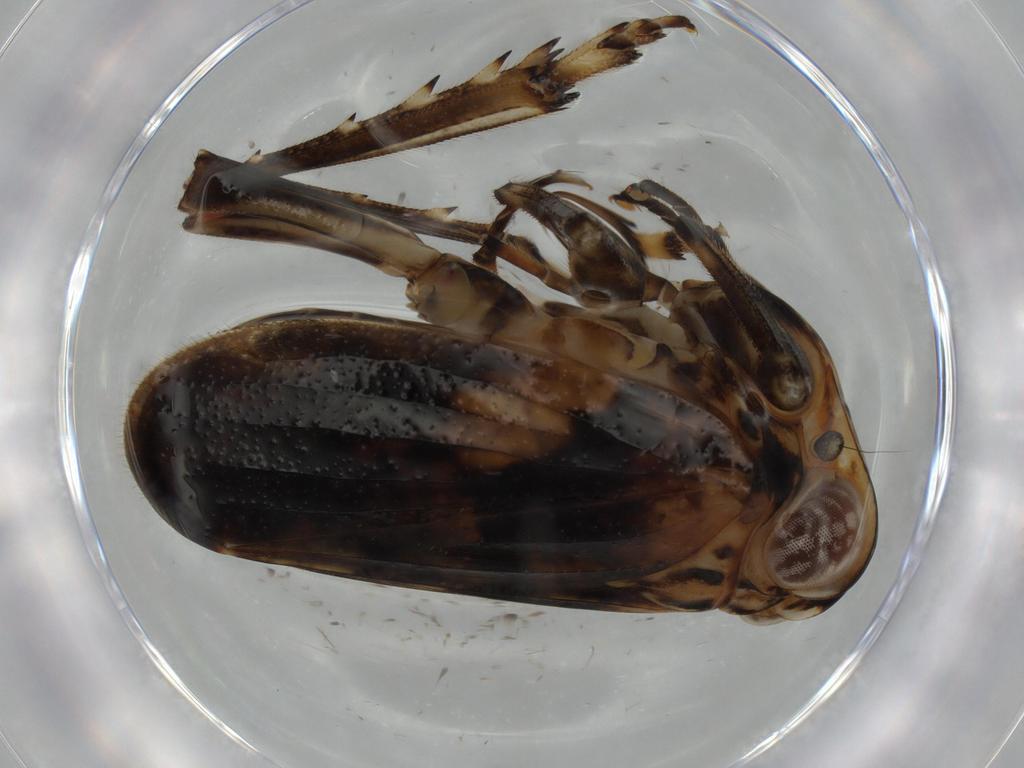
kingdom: Animalia
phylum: Arthropoda
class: Insecta
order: Hemiptera
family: Issidae
